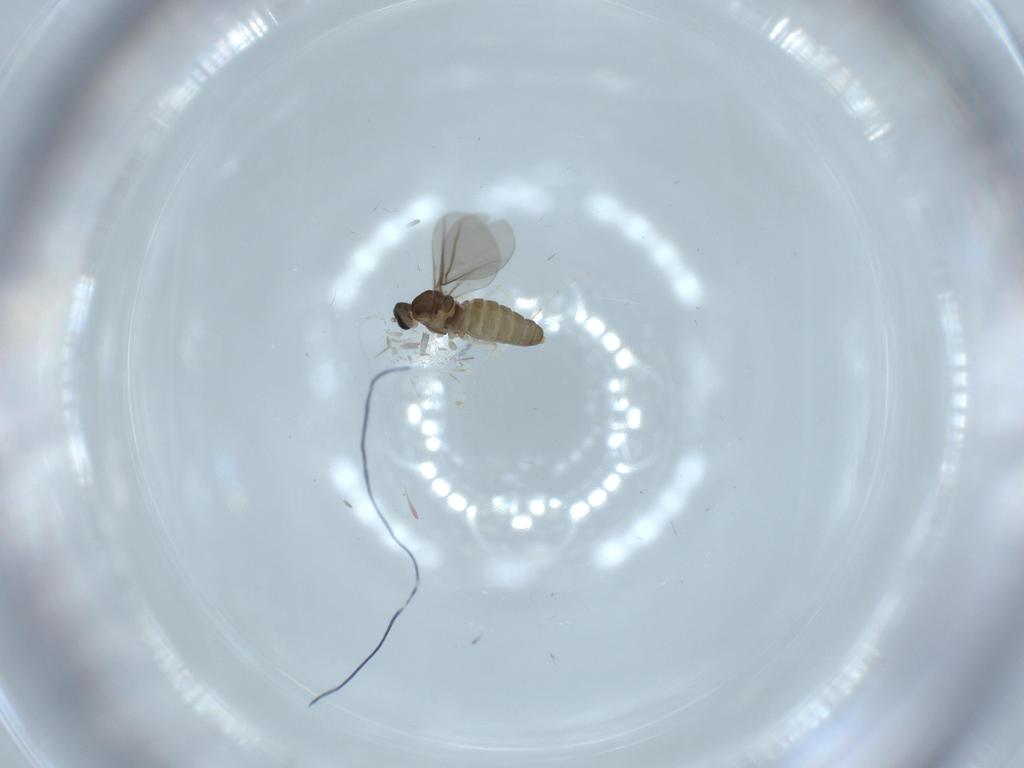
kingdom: Animalia
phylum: Arthropoda
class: Insecta
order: Diptera
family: Cecidomyiidae
